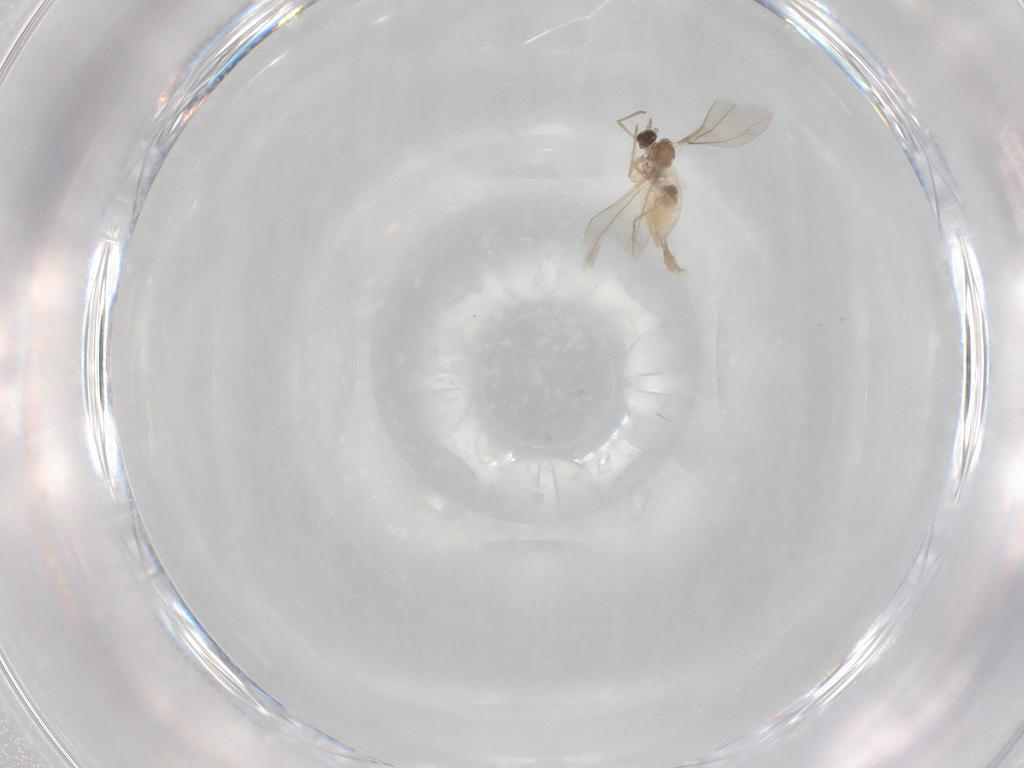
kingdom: Animalia
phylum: Arthropoda
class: Insecta
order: Diptera
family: Cecidomyiidae
